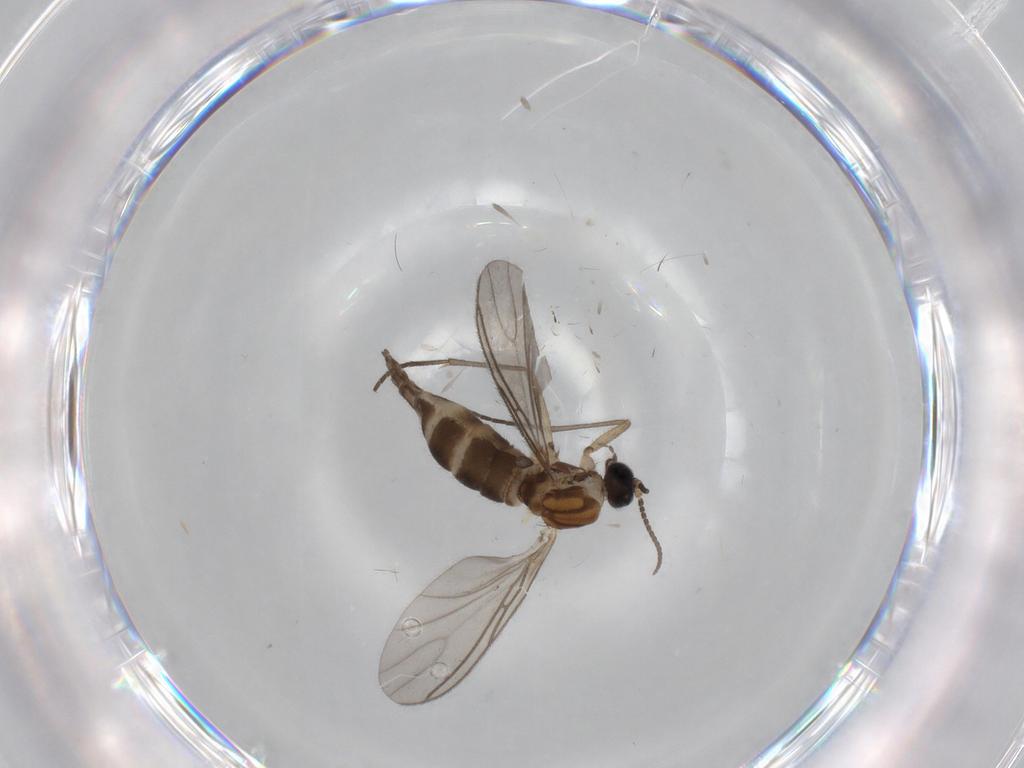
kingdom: Animalia
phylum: Arthropoda
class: Insecta
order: Diptera
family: Sciaridae
